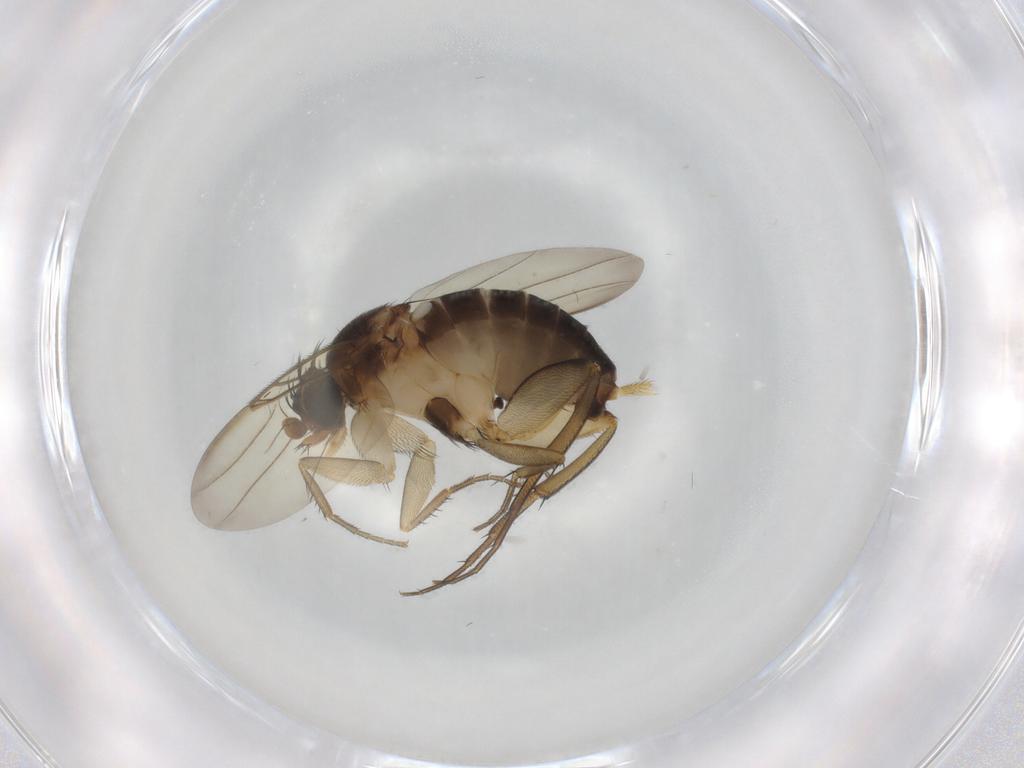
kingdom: Animalia
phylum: Arthropoda
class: Insecta
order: Diptera
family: Phoridae
